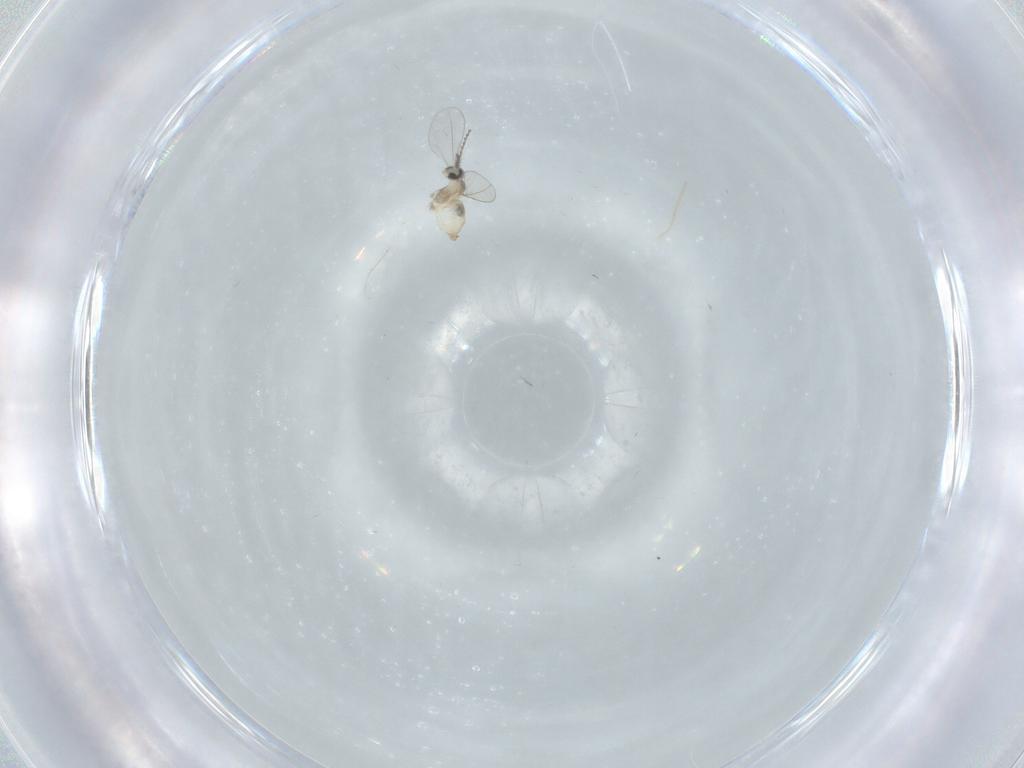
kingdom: Animalia
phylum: Arthropoda
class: Insecta
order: Diptera
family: Cecidomyiidae
